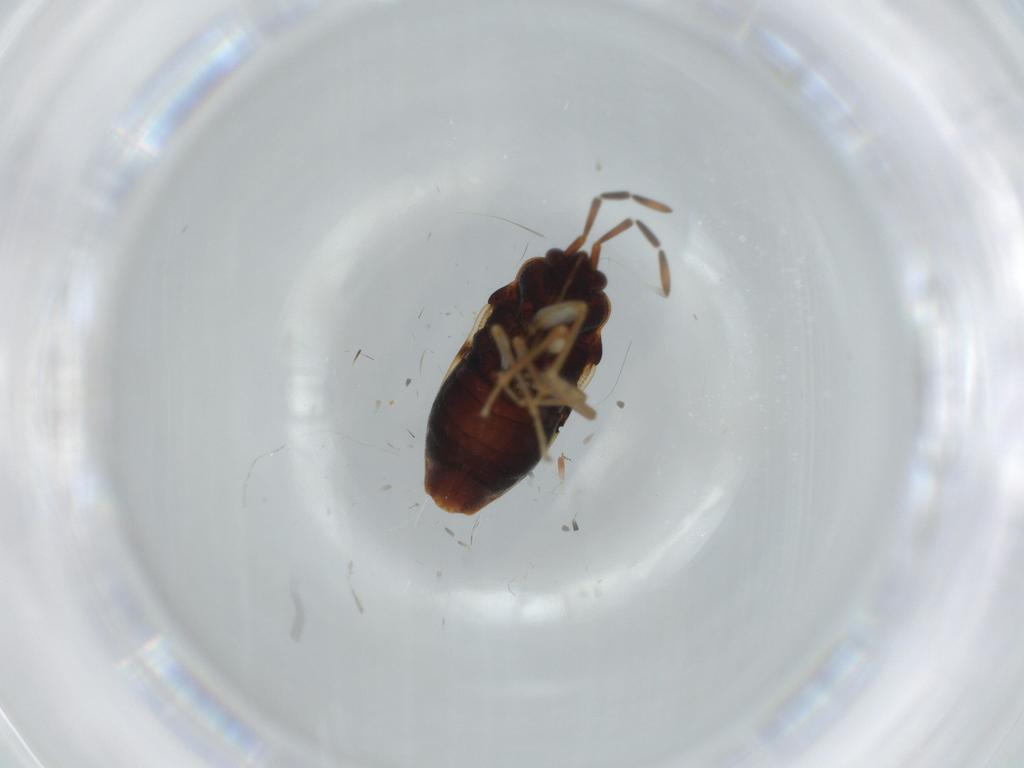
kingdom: Animalia
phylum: Arthropoda
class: Insecta
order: Hemiptera
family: Rhyparochromidae
